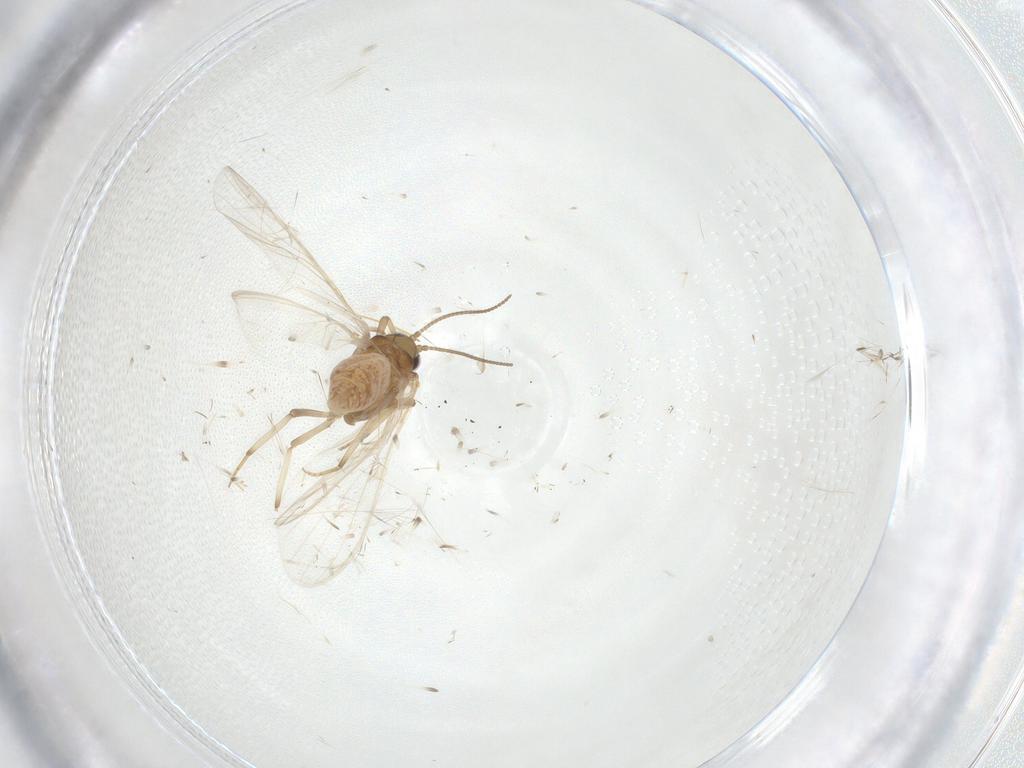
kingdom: Animalia
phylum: Arthropoda
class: Insecta
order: Neuroptera
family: Coniopterygidae
